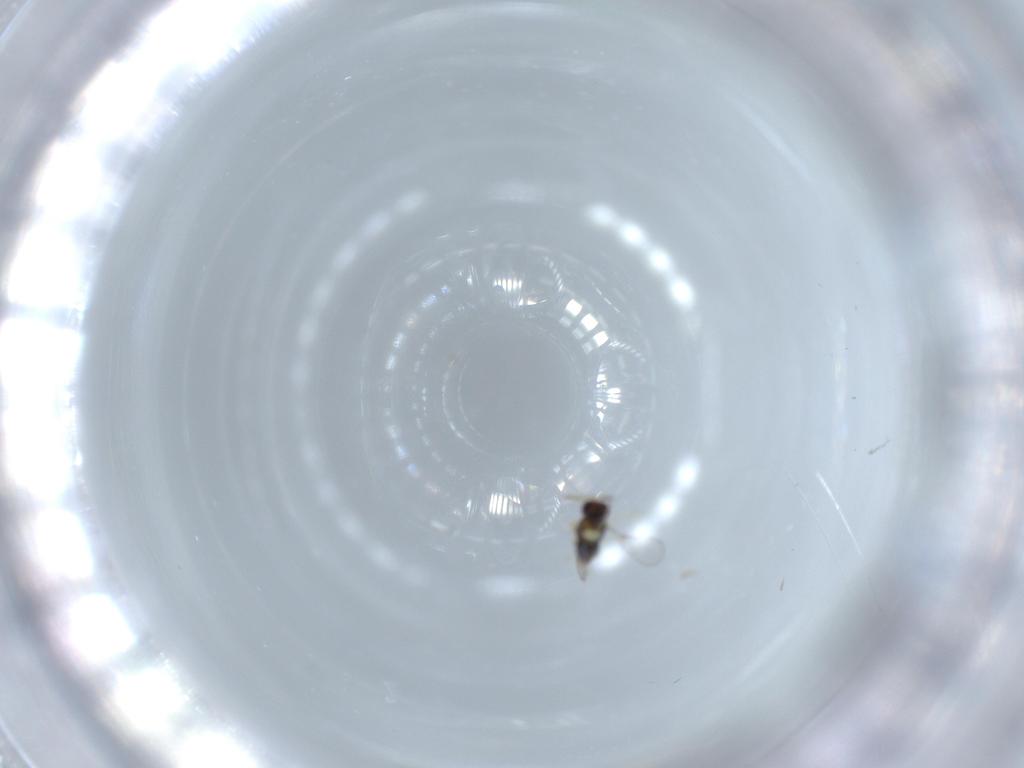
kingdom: Animalia
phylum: Arthropoda
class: Insecta
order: Hymenoptera
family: Aphelinidae
